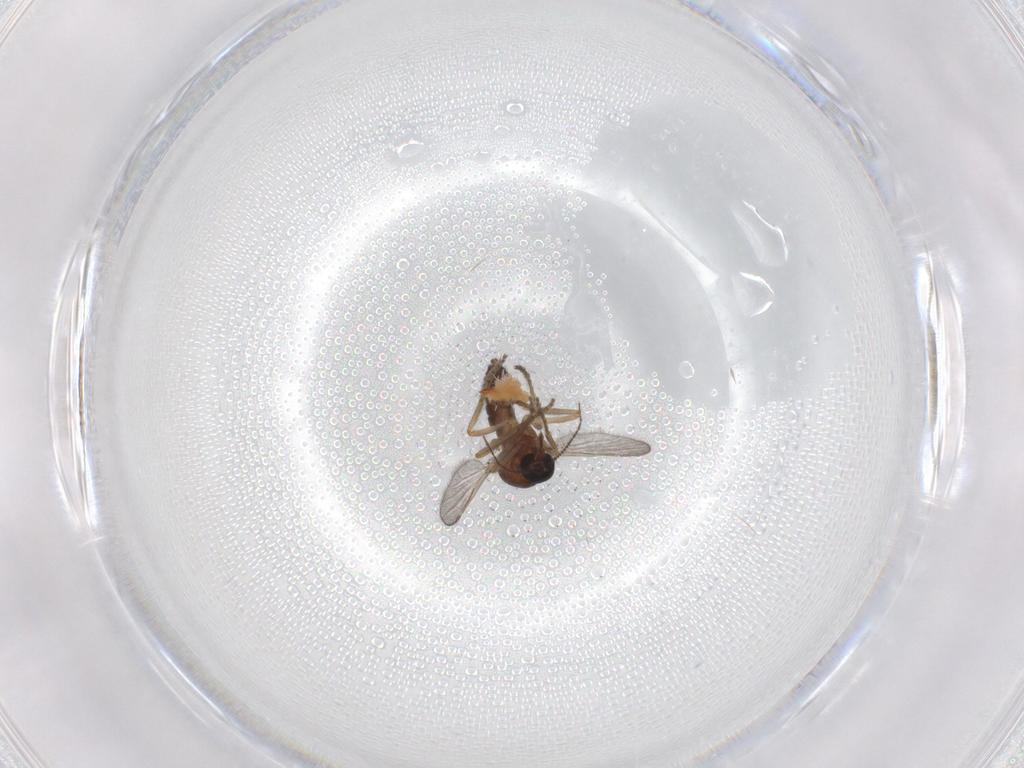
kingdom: Animalia
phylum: Arthropoda
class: Insecta
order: Diptera
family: Ceratopogonidae
